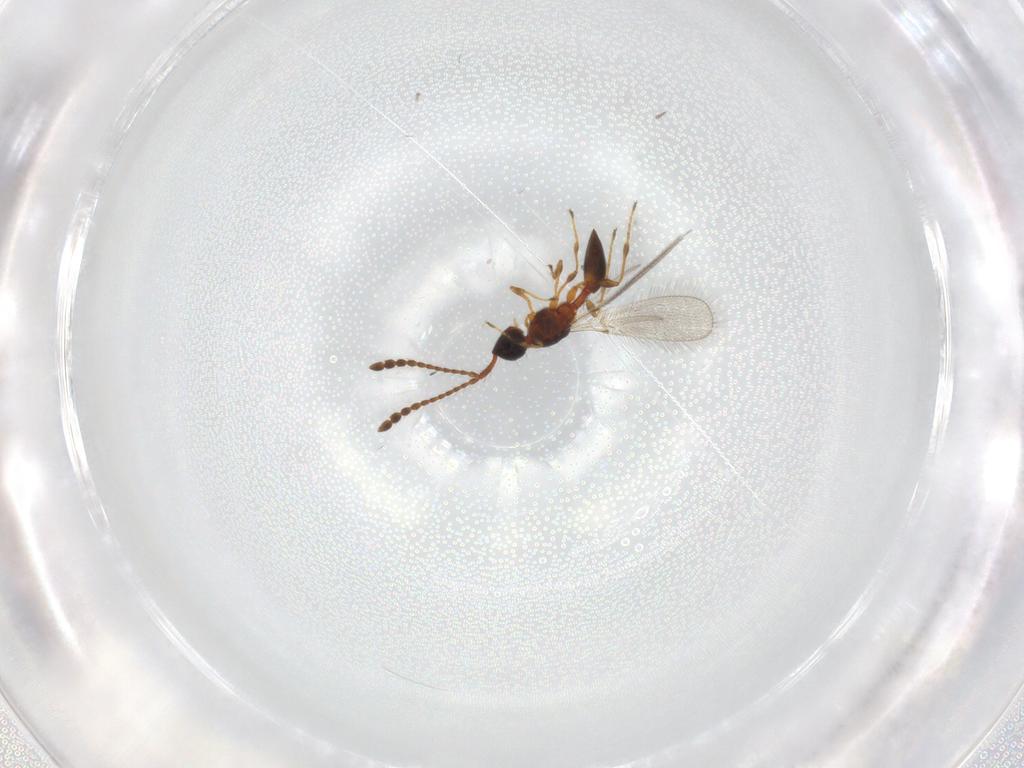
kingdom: Animalia
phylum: Arthropoda
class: Insecta
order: Hymenoptera
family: Diapriidae
